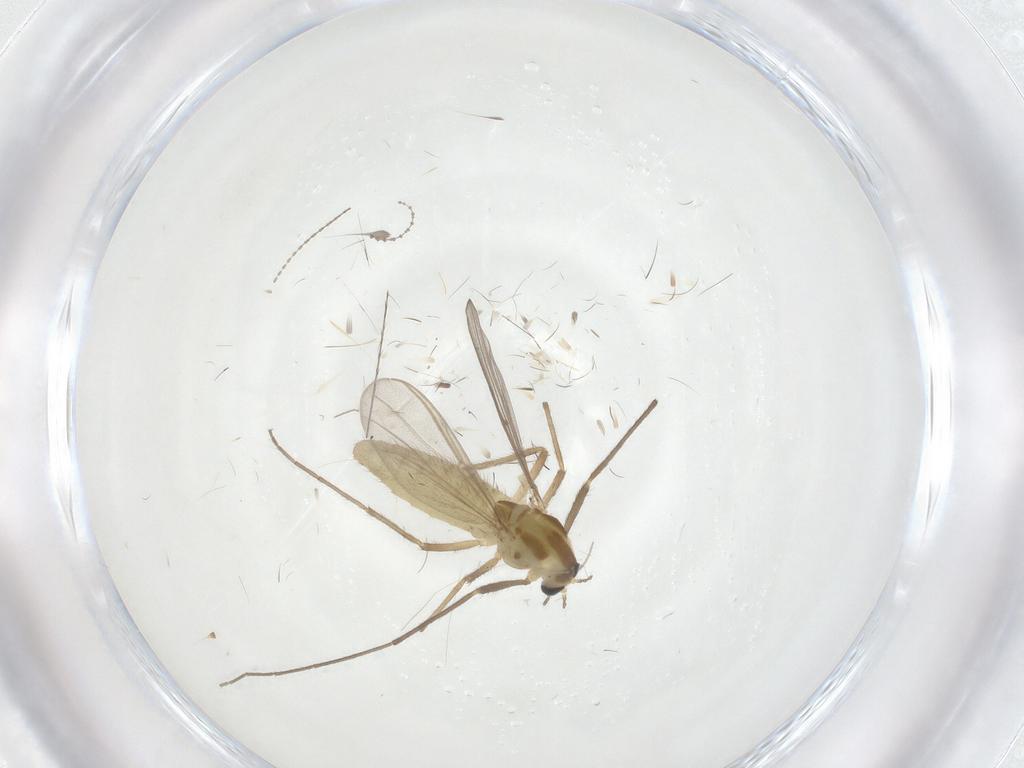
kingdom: Animalia
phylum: Arthropoda
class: Insecta
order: Diptera
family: Chironomidae
